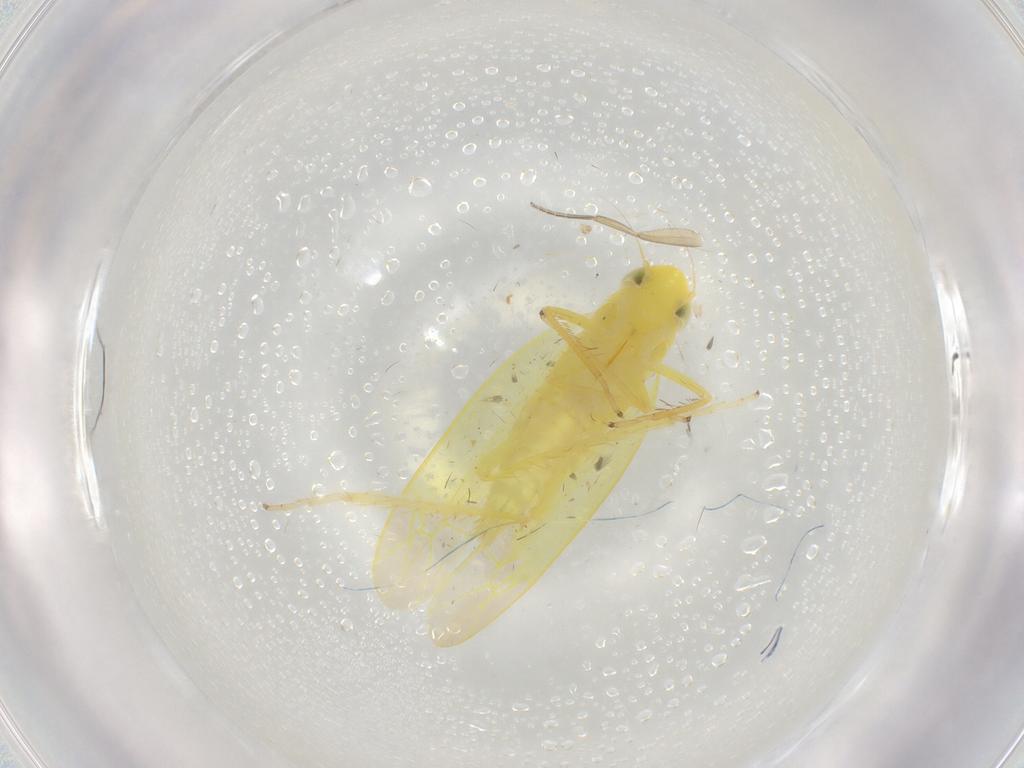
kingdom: Animalia
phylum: Arthropoda
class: Insecta
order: Hemiptera
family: Cicadellidae
